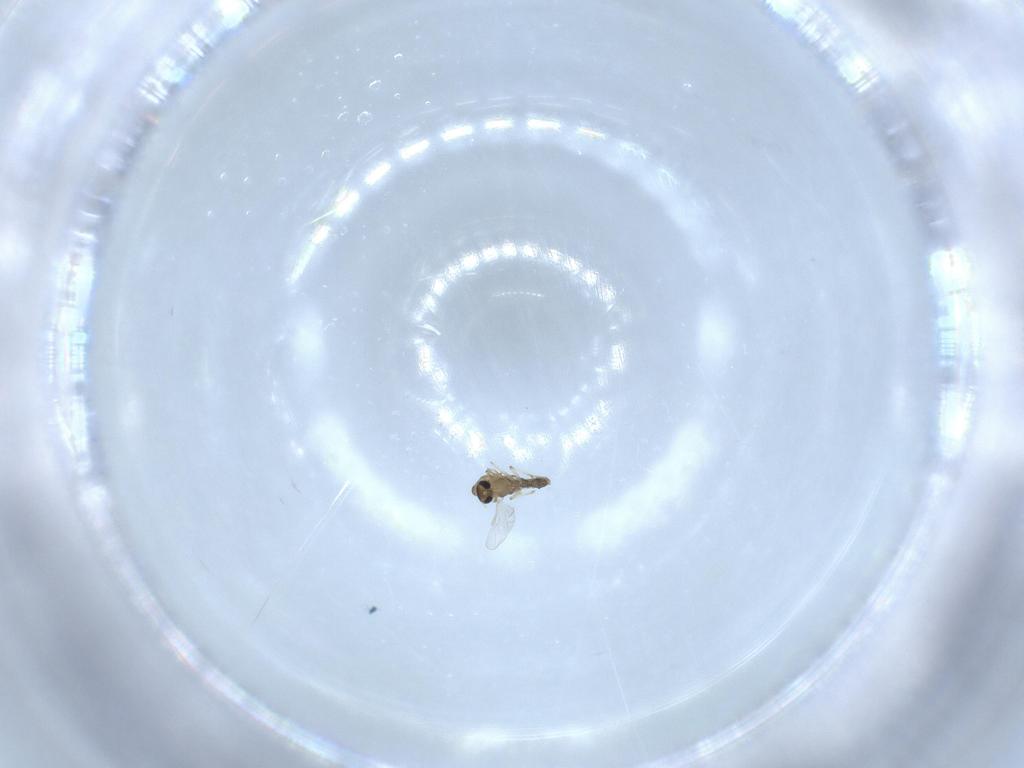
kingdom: Animalia
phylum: Arthropoda
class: Insecta
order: Diptera
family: Chironomidae
